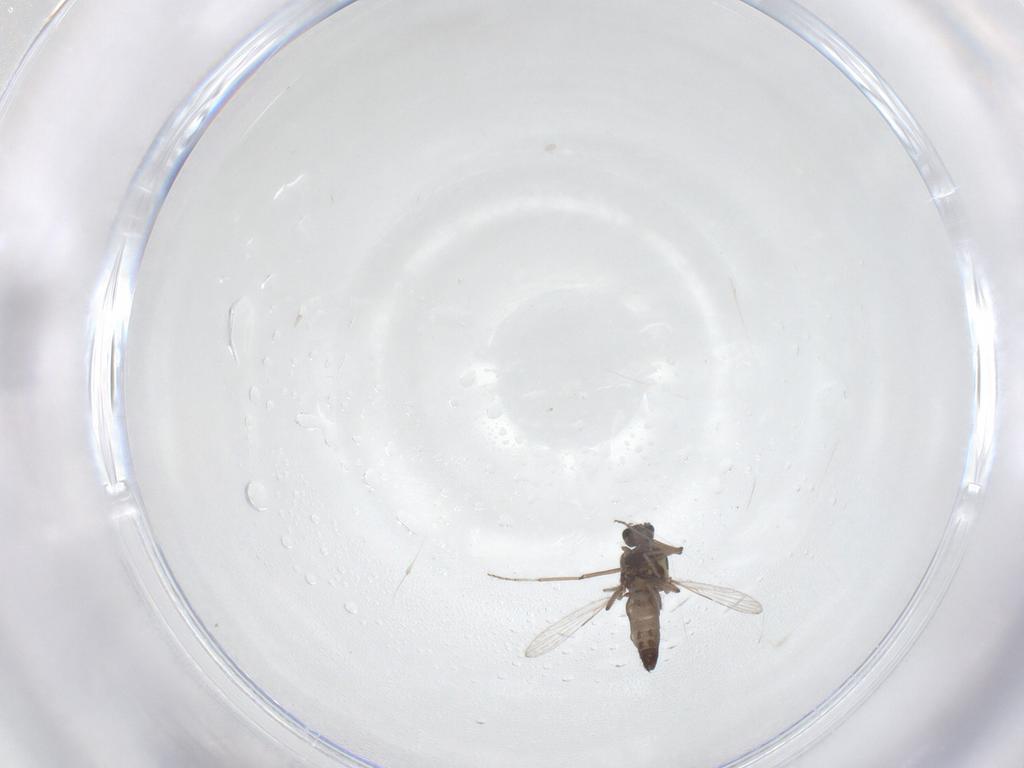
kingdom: Animalia
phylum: Arthropoda
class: Insecta
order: Diptera
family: Ceratopogonidae
